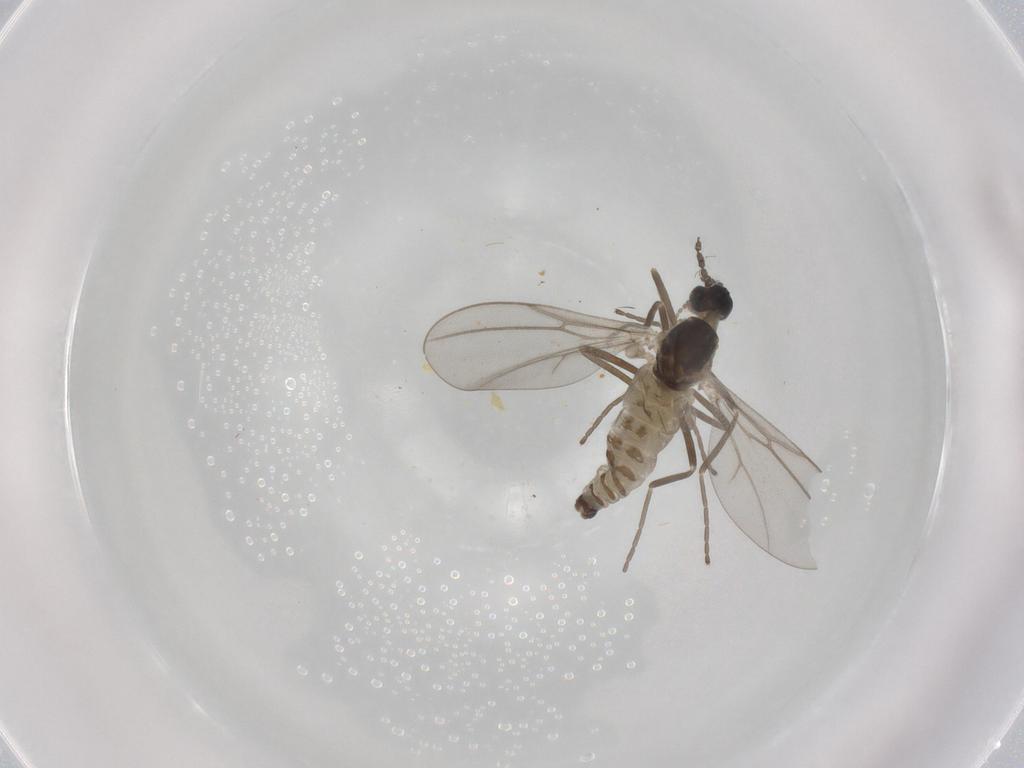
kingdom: Animalia
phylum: Arthropoda
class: Insecta
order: Diptera
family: Cecidomyiidae
